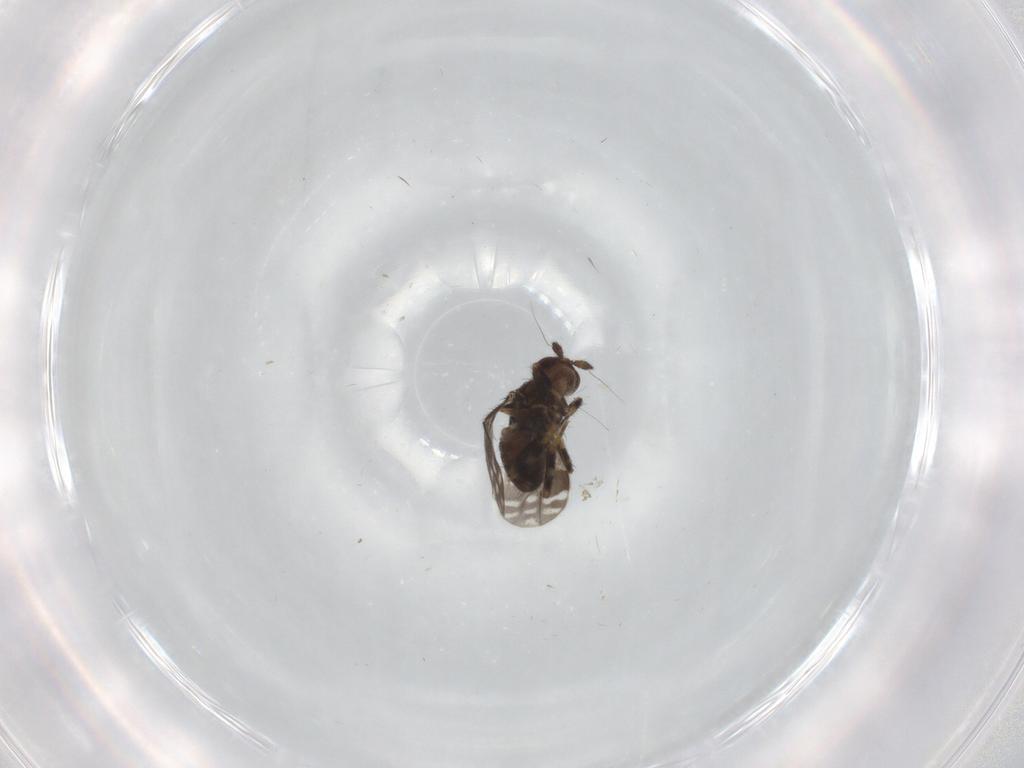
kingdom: Animalia
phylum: Arthropoda
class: Insecta
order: Diptera
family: Sphaeroceridae
